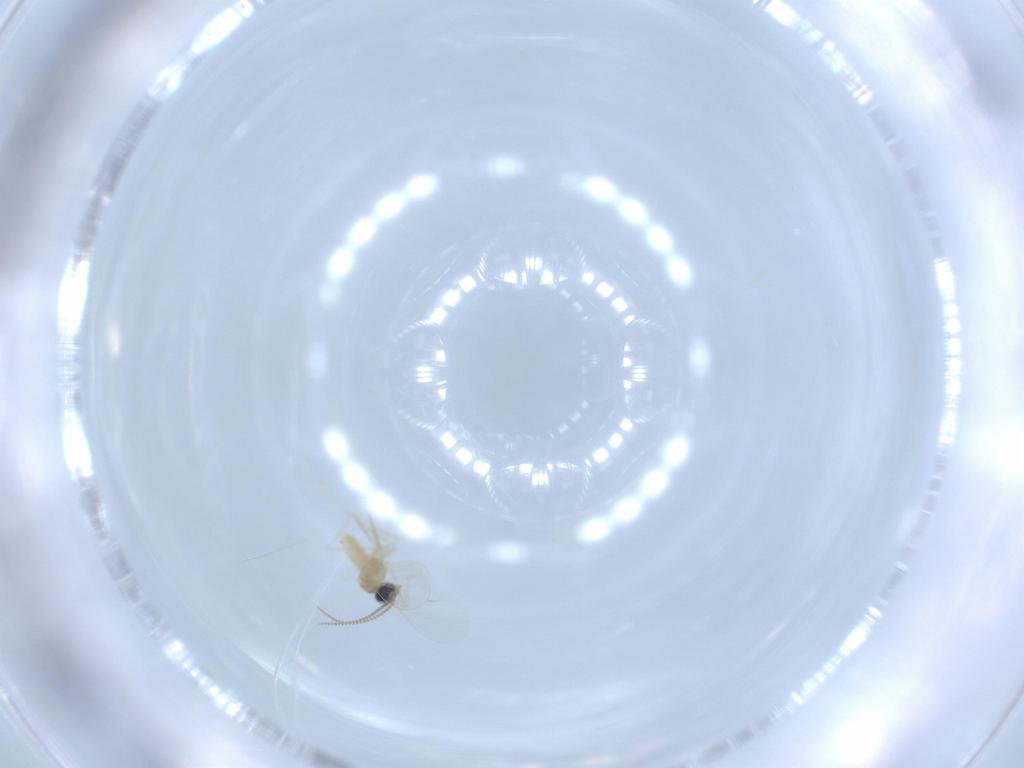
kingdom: Animalia
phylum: Arthropoda
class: Insecta
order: Diptera
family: Cecidomyiidae
